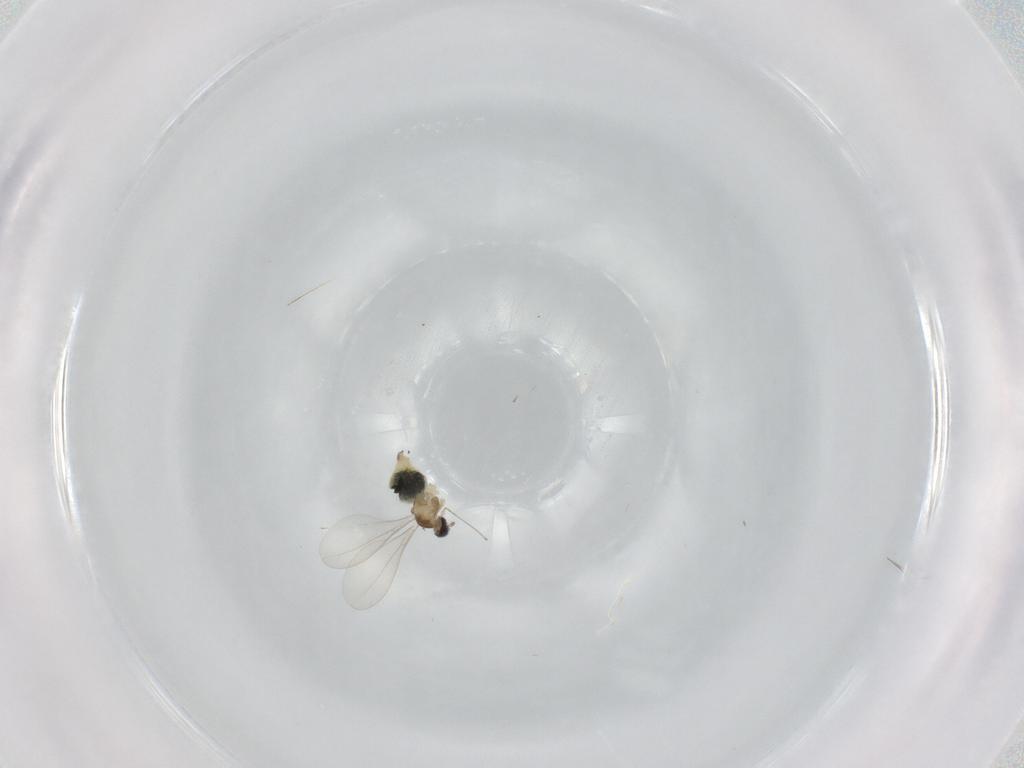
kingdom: Animalia
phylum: Arthropoda
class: Insecta
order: Diptera
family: Cecidomyiidae
